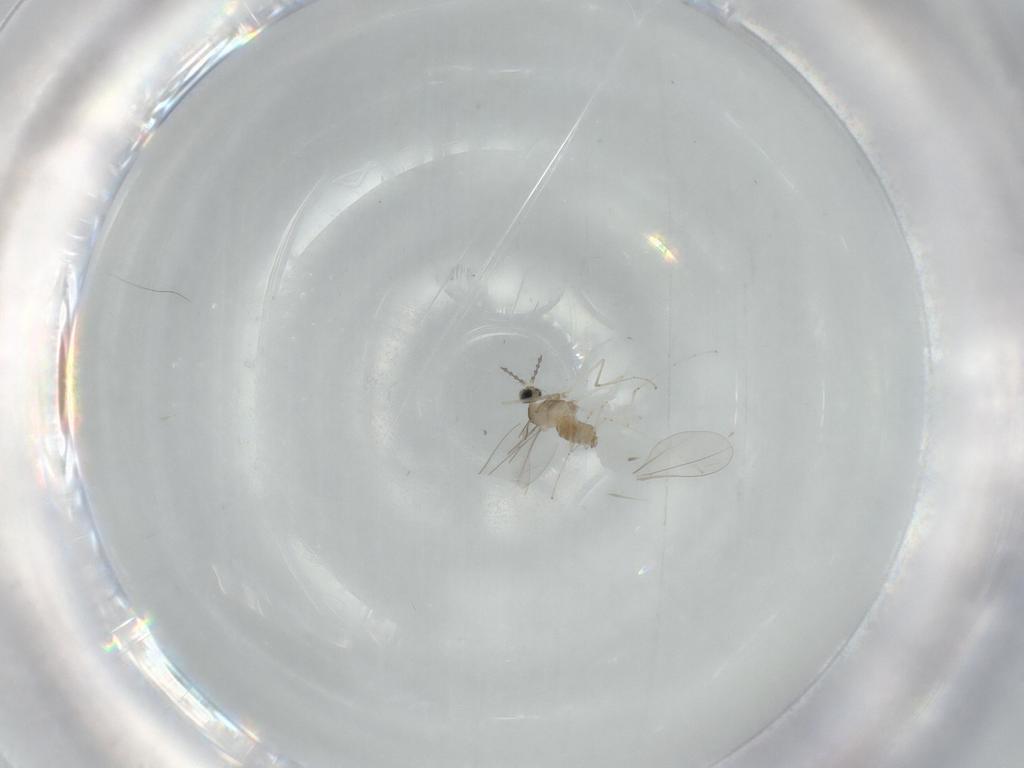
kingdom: Animalia
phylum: Arthropoda
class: Insecta
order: Diptera
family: Cecidomyiidae
